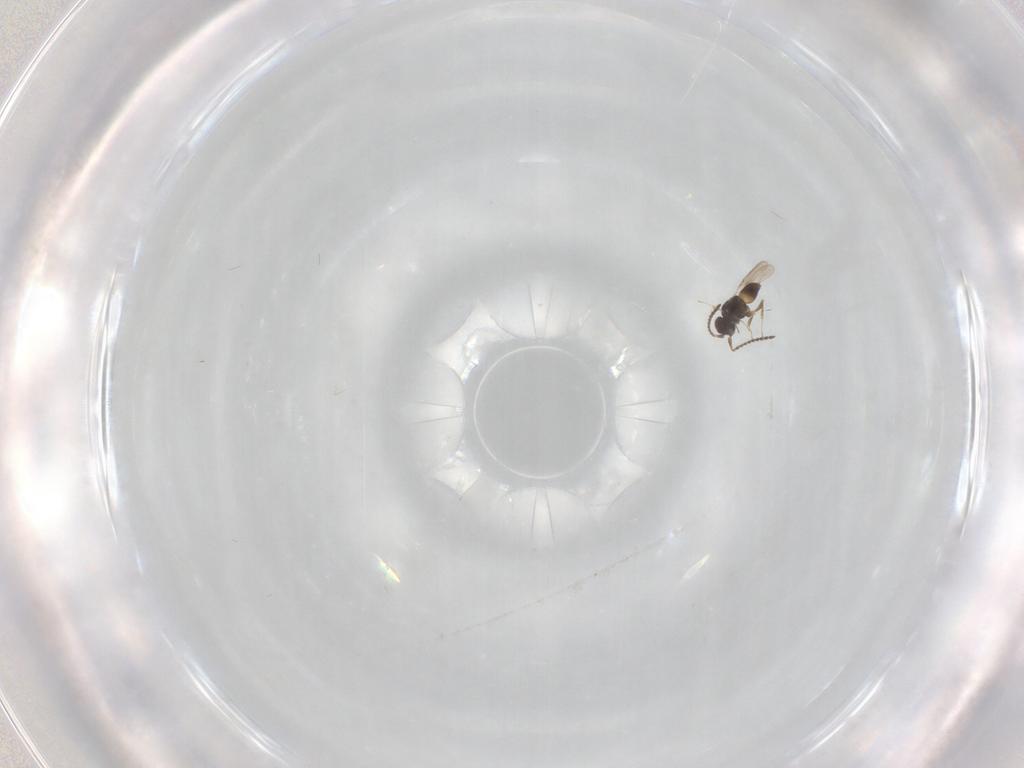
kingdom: Animalia
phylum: Arthropoda
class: Insecta
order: Hymenoptera
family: Ceraphronidae
